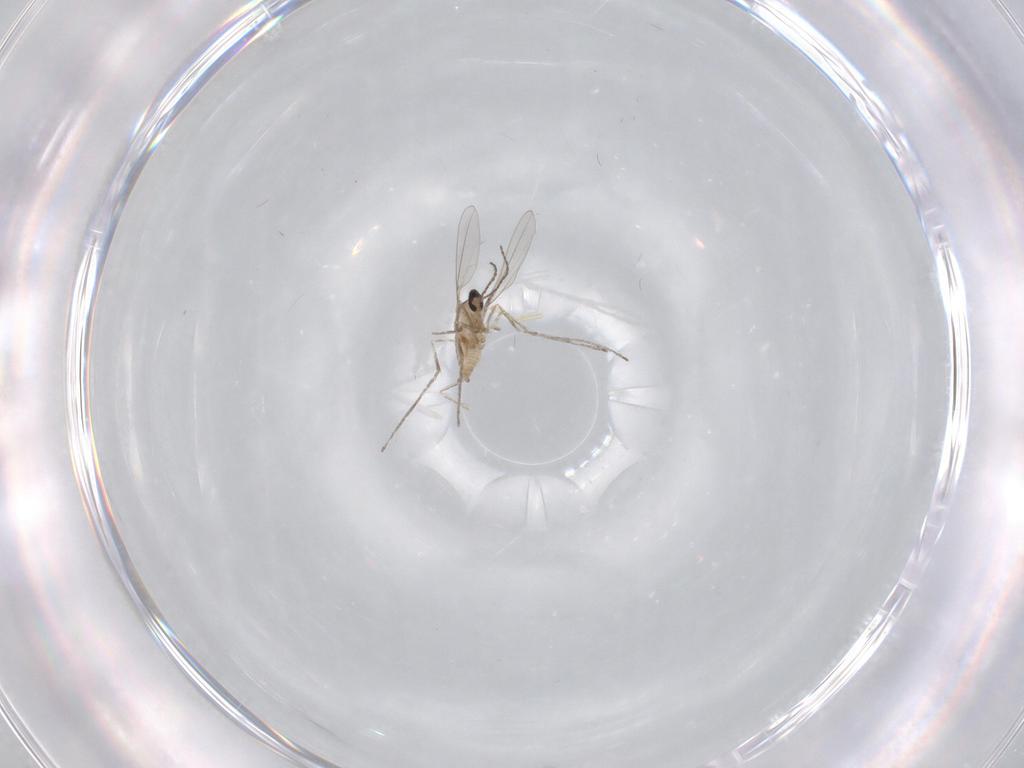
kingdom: Animalia
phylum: Arthropoda
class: Insecta
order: Diptera
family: Cecidomyiidae
